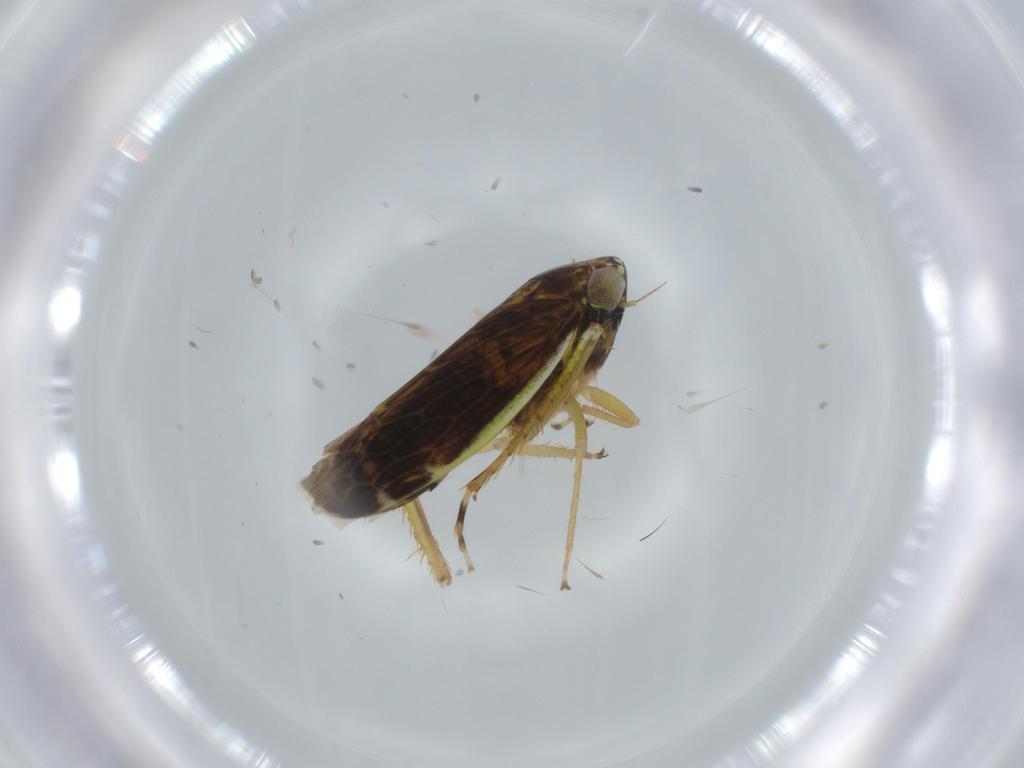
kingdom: Animalia
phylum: Arthropoda
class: Insecta
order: Hemiptera
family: Cicadellidae
